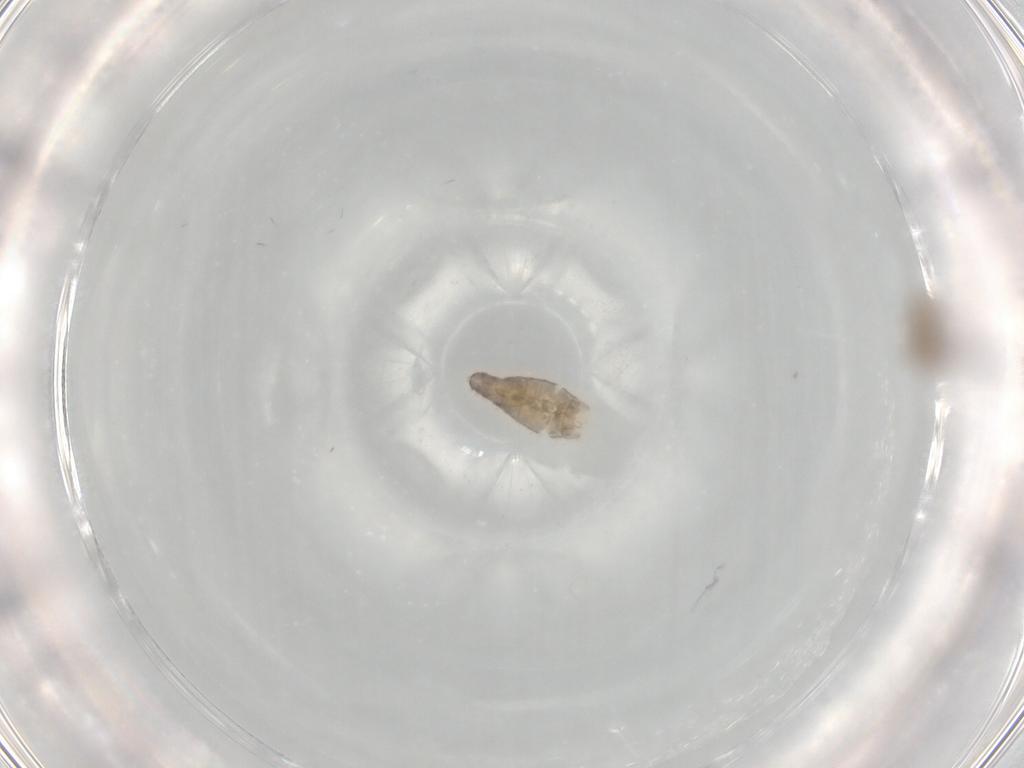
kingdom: Animalia
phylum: Arthropoda
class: Insecta
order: Diptera
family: Chironomidae
